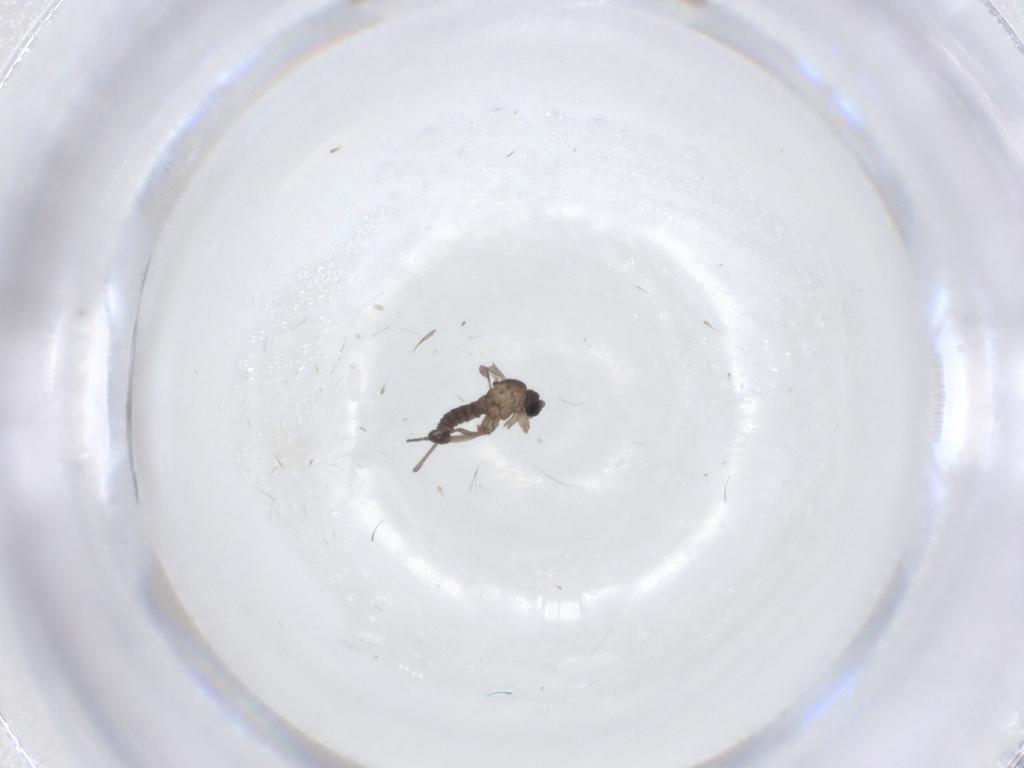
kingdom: Animalia
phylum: Arthropoda
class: Insecta
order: Diptera
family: Sciaridae
